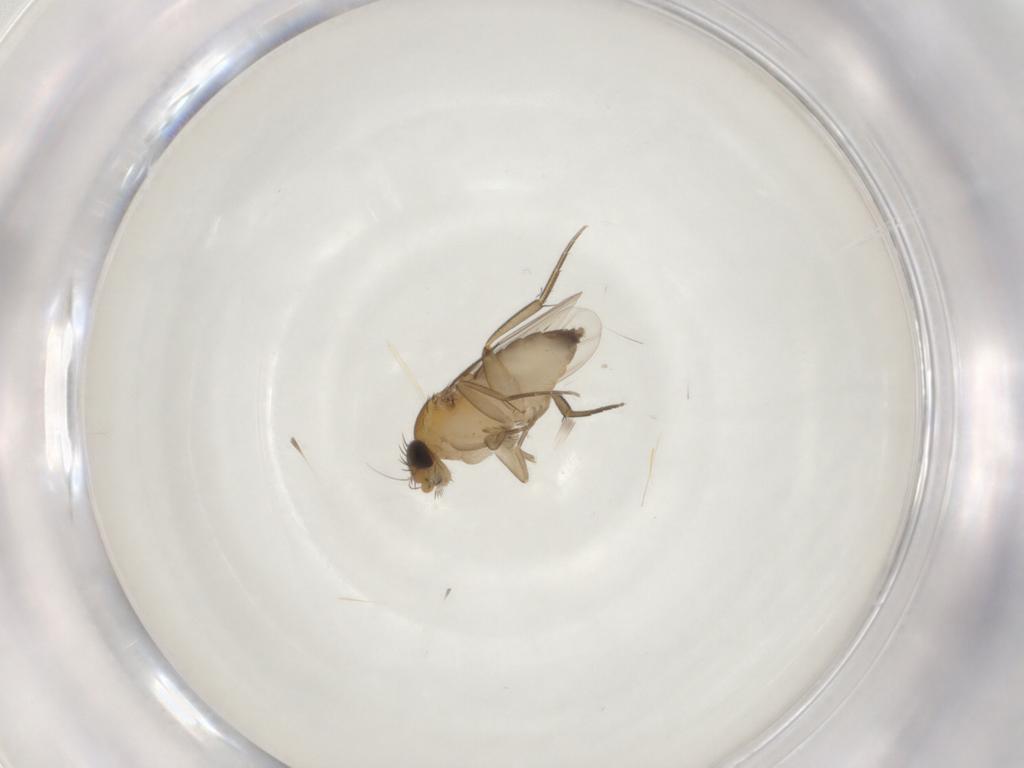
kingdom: Animalia
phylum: Arthropoda
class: Insecta
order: Diptera
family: Phoridae
